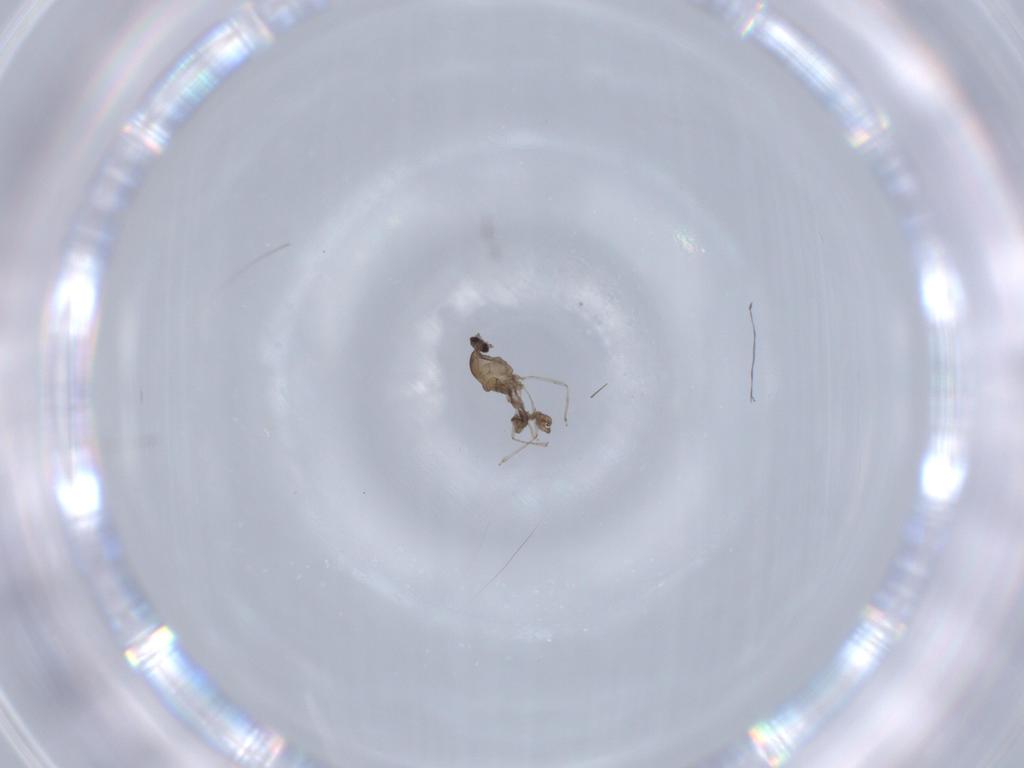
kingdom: Animalia
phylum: Arthropoda
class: Insecta
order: Diptera
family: Cecidomyiidae
